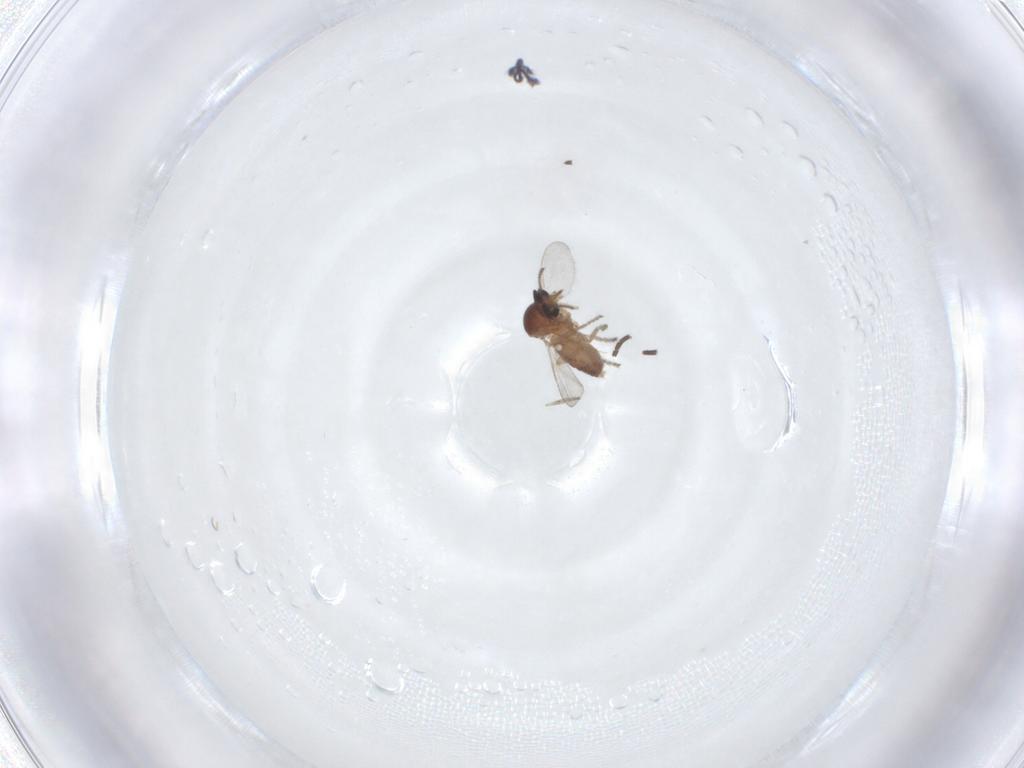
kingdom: Animalia
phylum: Arthropoda
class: Insecta
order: Diptera
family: Ceratopogonidae
